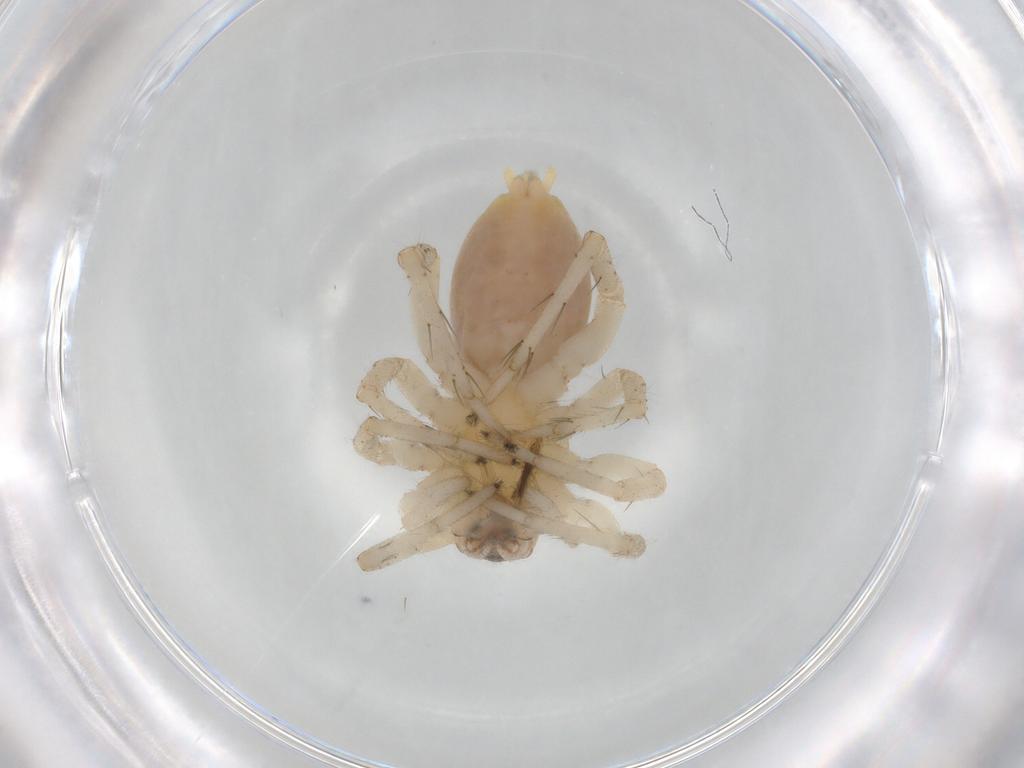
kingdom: Animalia
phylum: Arthropoda
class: Arachnida
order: Araneae
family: Anyphaenidae
